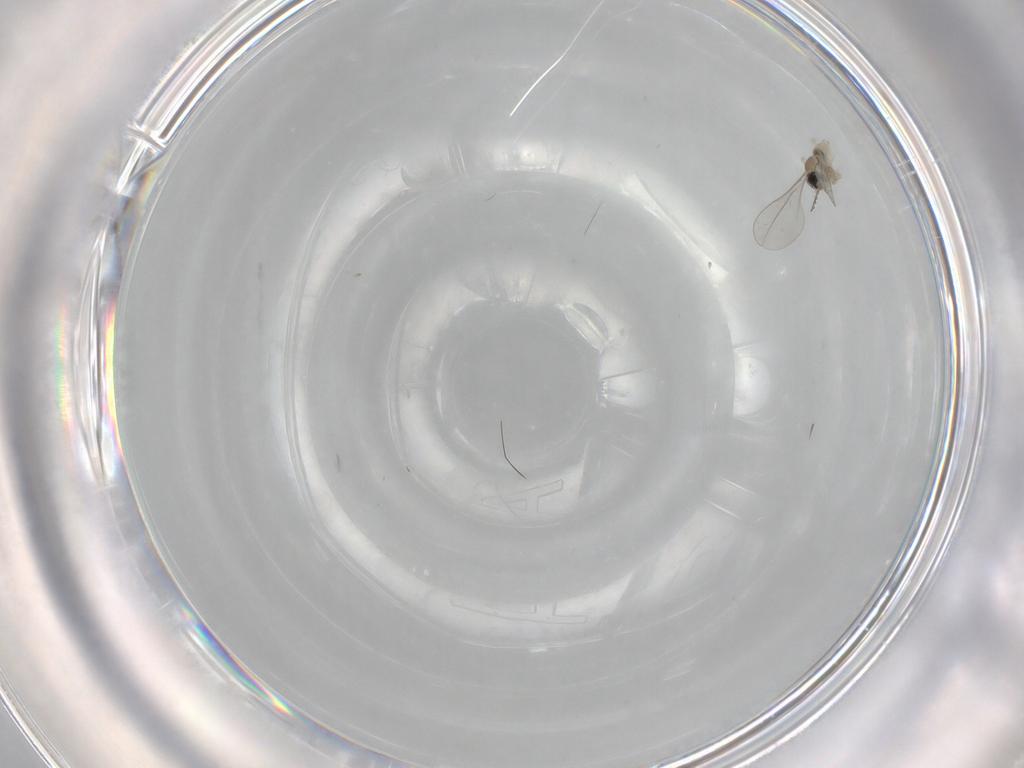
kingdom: Animalia
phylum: Arthropoda
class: Insecta
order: Diptera
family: Cecidomyiidae
